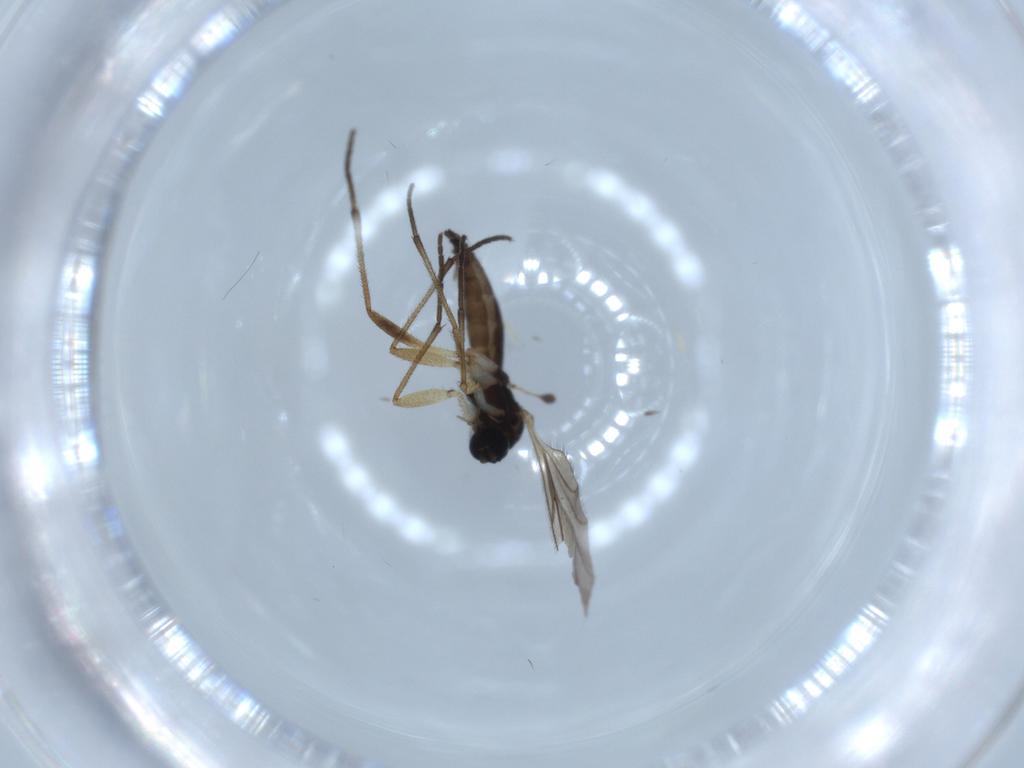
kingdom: Animalia
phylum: Arthropoda
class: Insecta
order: Diptera
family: Sciaridae
